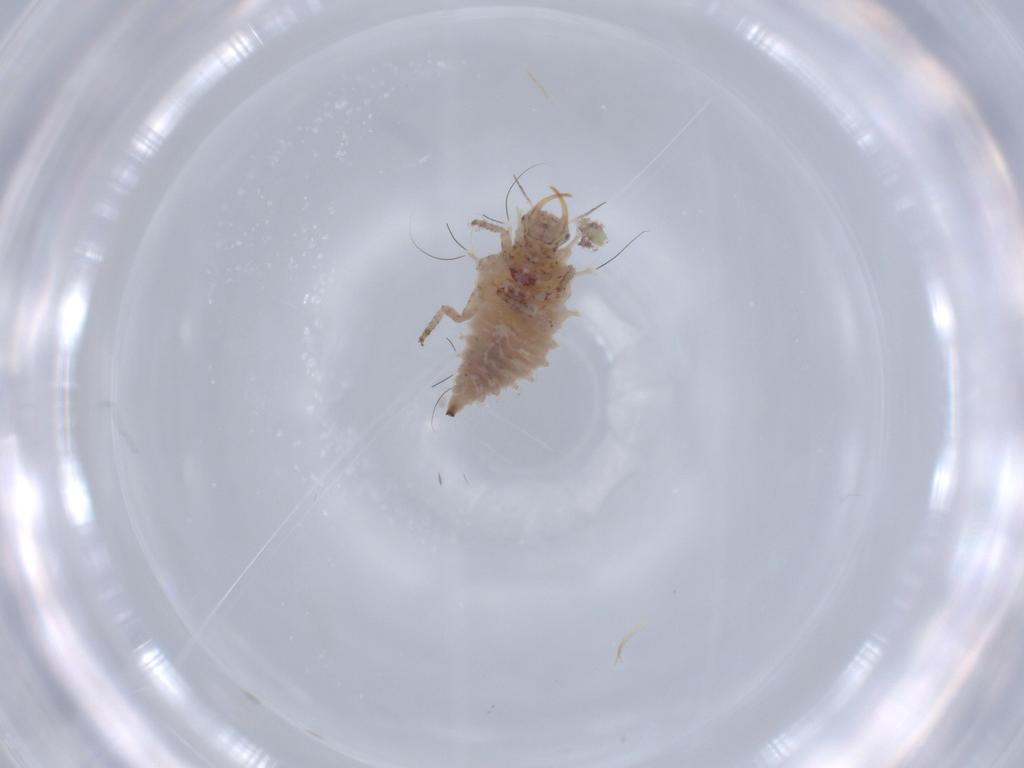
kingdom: Animalia
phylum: Arthropoda
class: Insecta
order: Neuroptera
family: Chrysopidae
